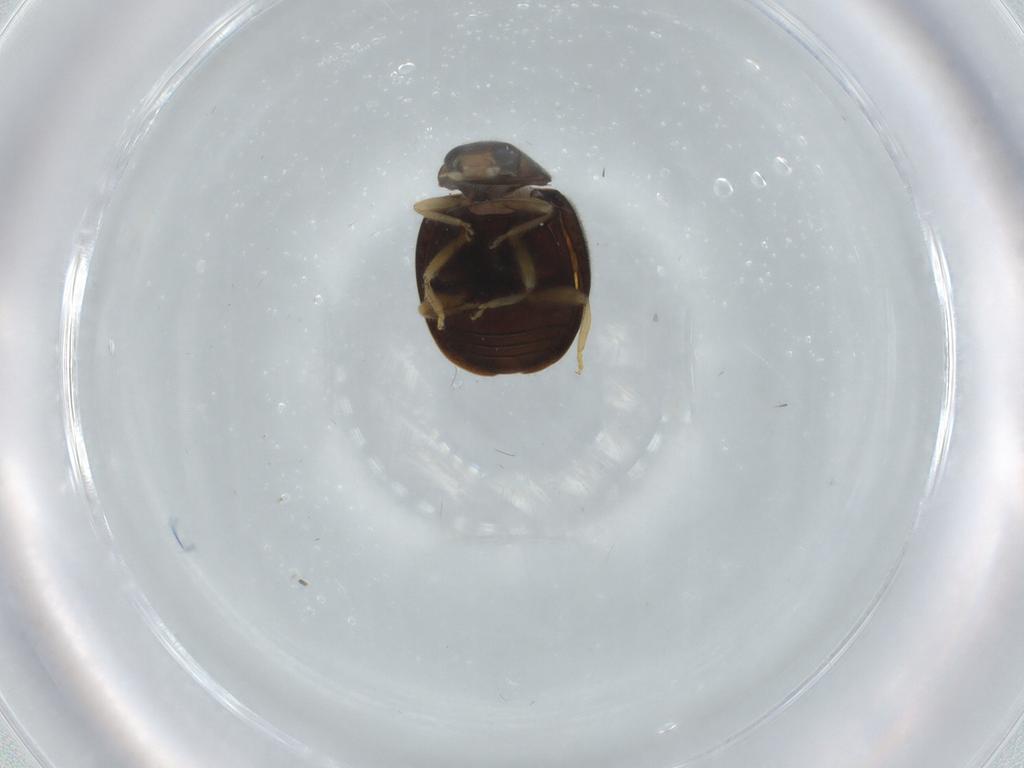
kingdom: Animalia
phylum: Arthropoda
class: Insecta
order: Coleoptera
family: Coccinellidae
